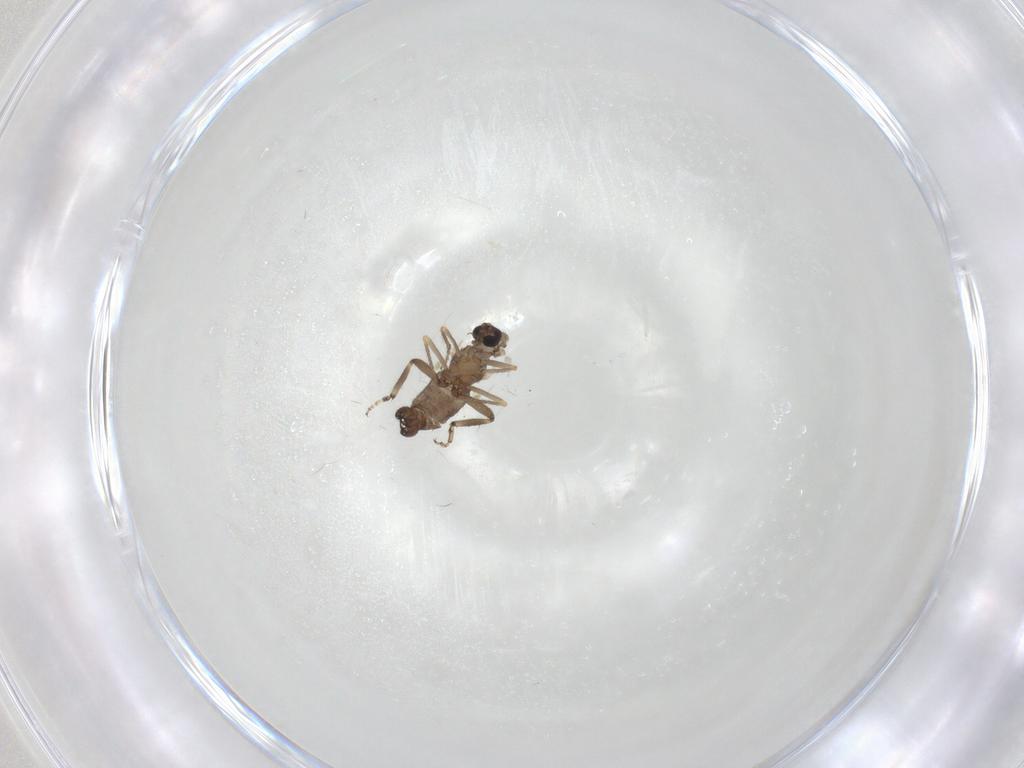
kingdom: Animalia
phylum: Arthropoda
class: Insecta
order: Diptera
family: Ceratopogonidae
